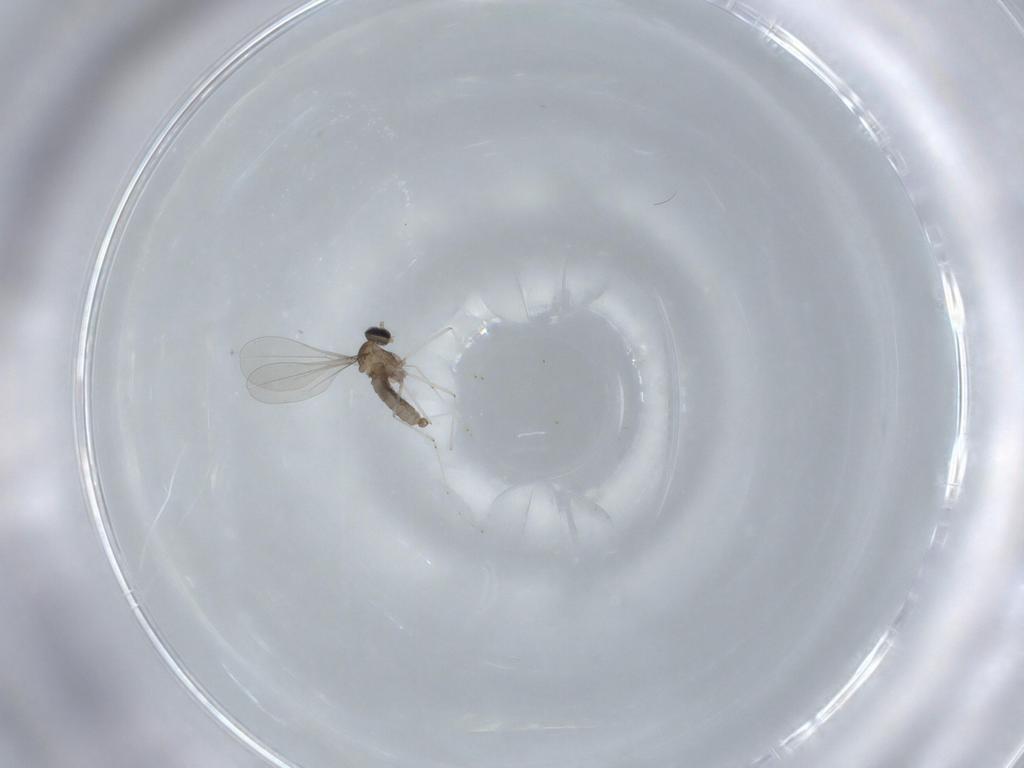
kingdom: Animalia
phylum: Arthropoda
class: Insecta
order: Diptera
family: Cecidomyiidae
